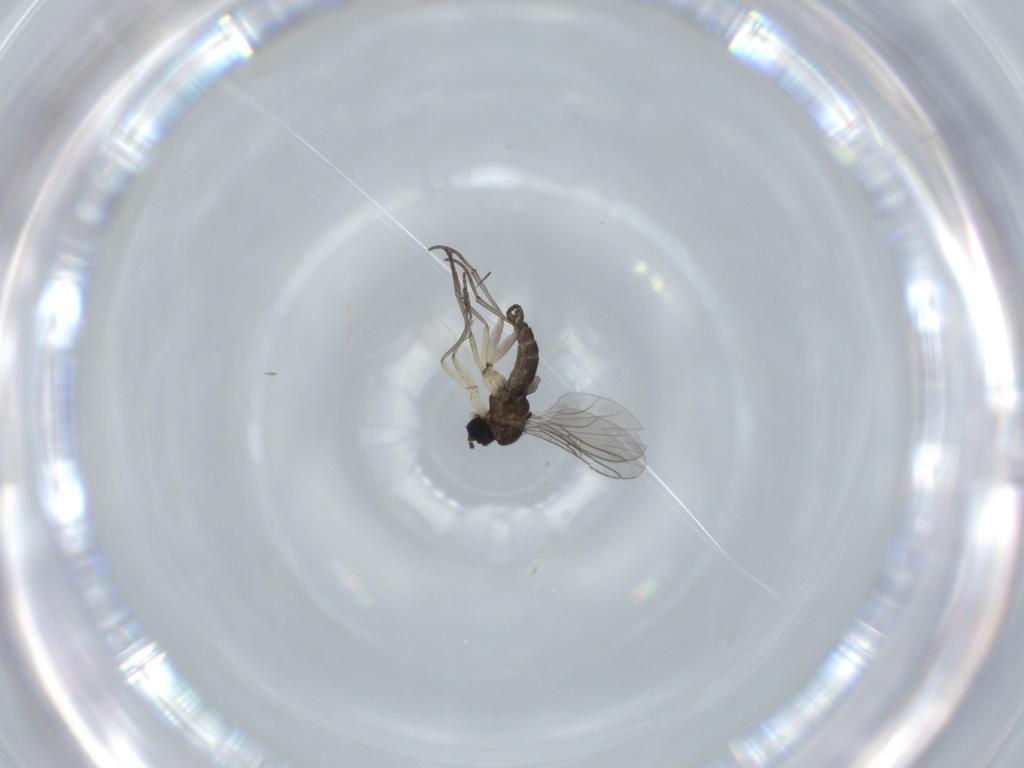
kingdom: Animalia
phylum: Arthropoda
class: Insecta
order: Diptera
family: Sciaridae
